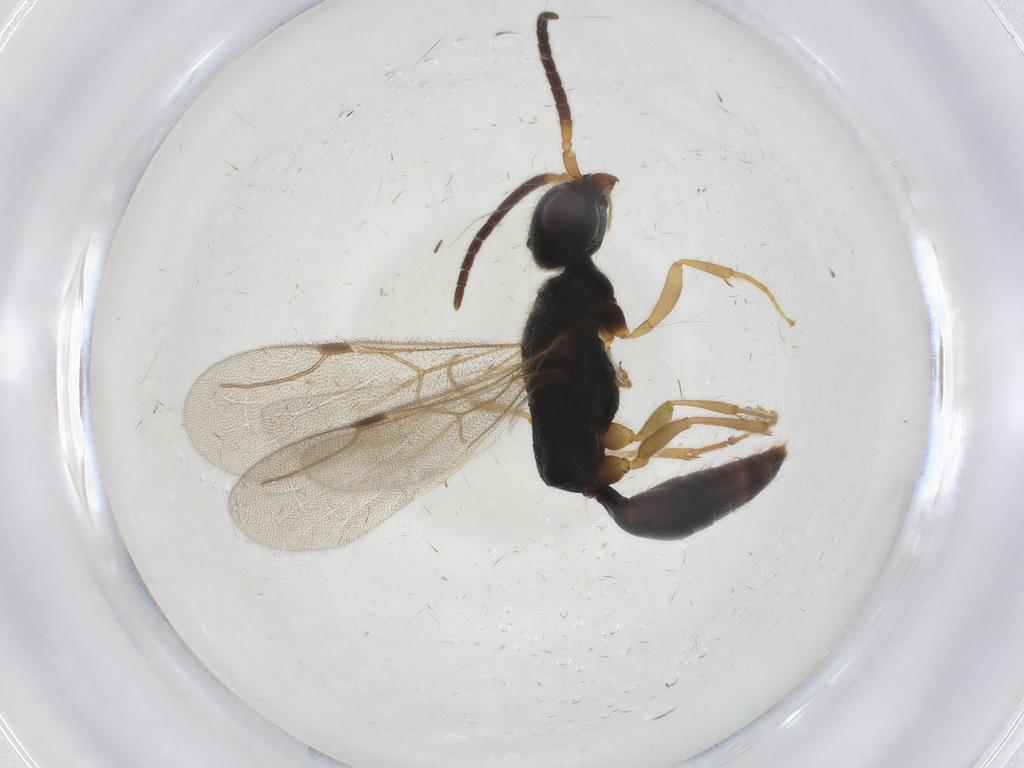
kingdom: Animalia
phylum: Arthropoda
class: Insecta
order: Hymenoptera
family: Bethylidae
